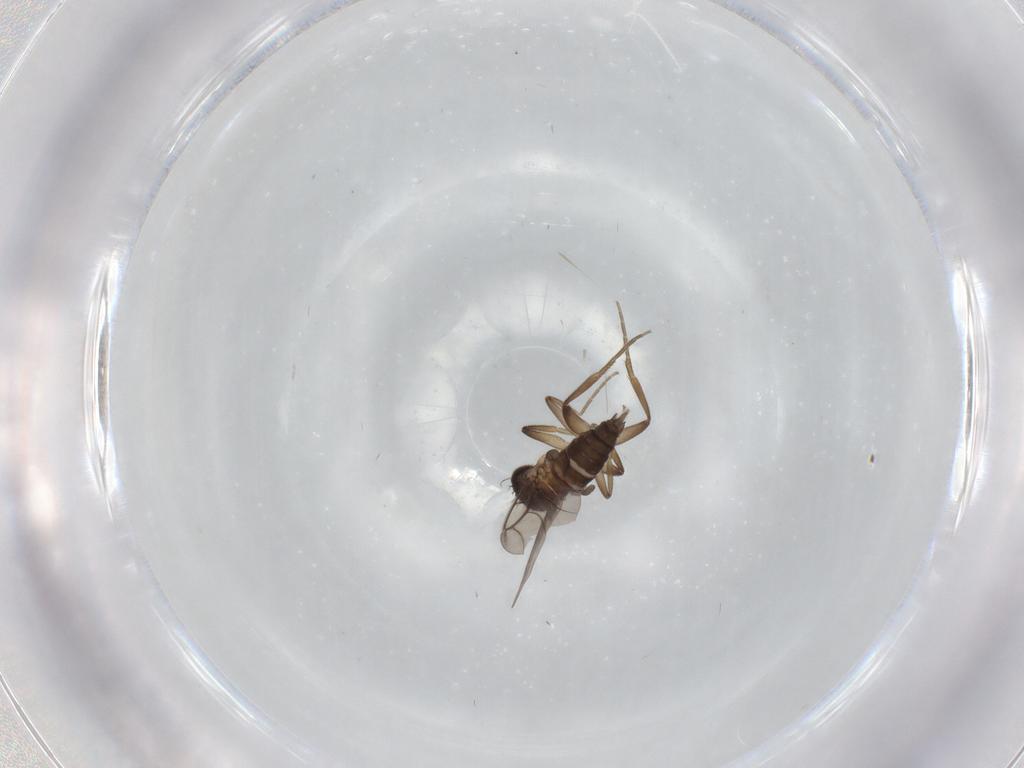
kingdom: Animalia
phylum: Arthropoda
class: Insecta
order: Diptera
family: Phoridae
